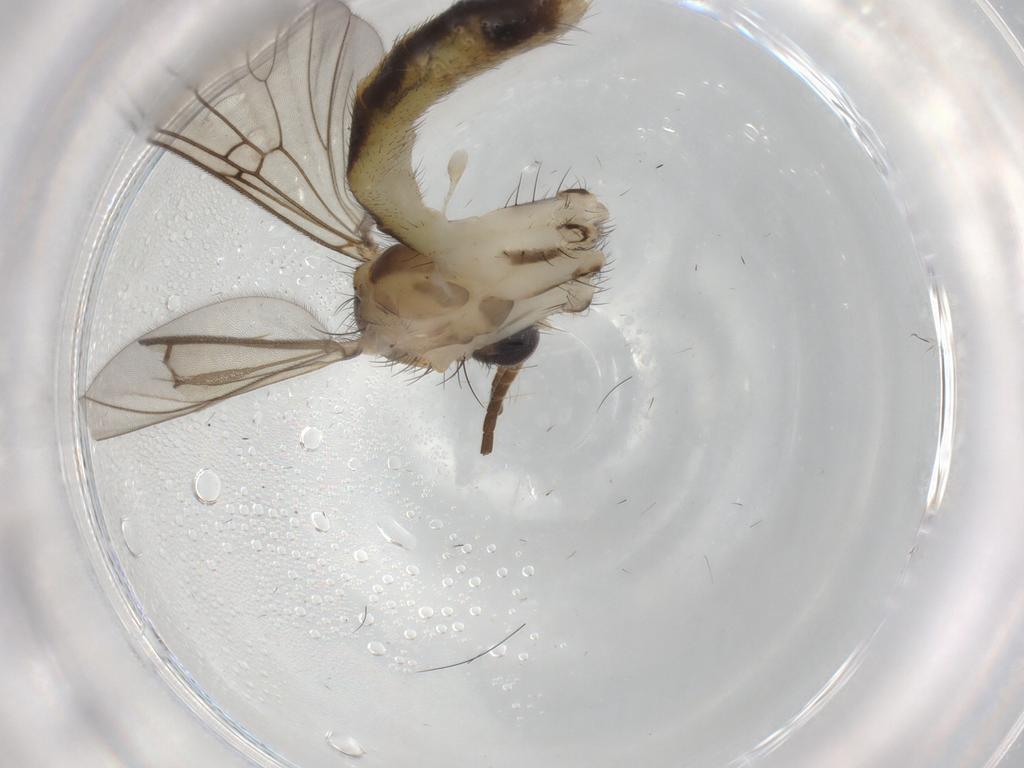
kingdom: Animalia
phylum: Arthropoda
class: Insecta
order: Diptera
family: Mycetophilidae
